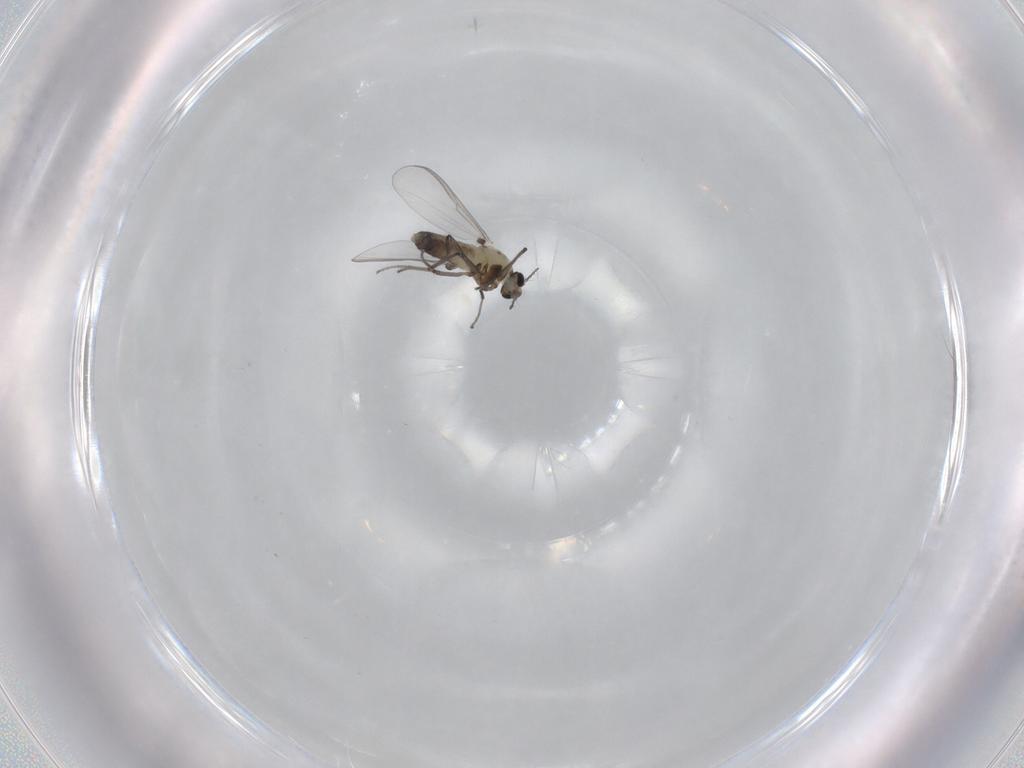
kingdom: Animalia
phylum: Arthropoda
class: Insecta
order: Diptera
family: Chironomidae
